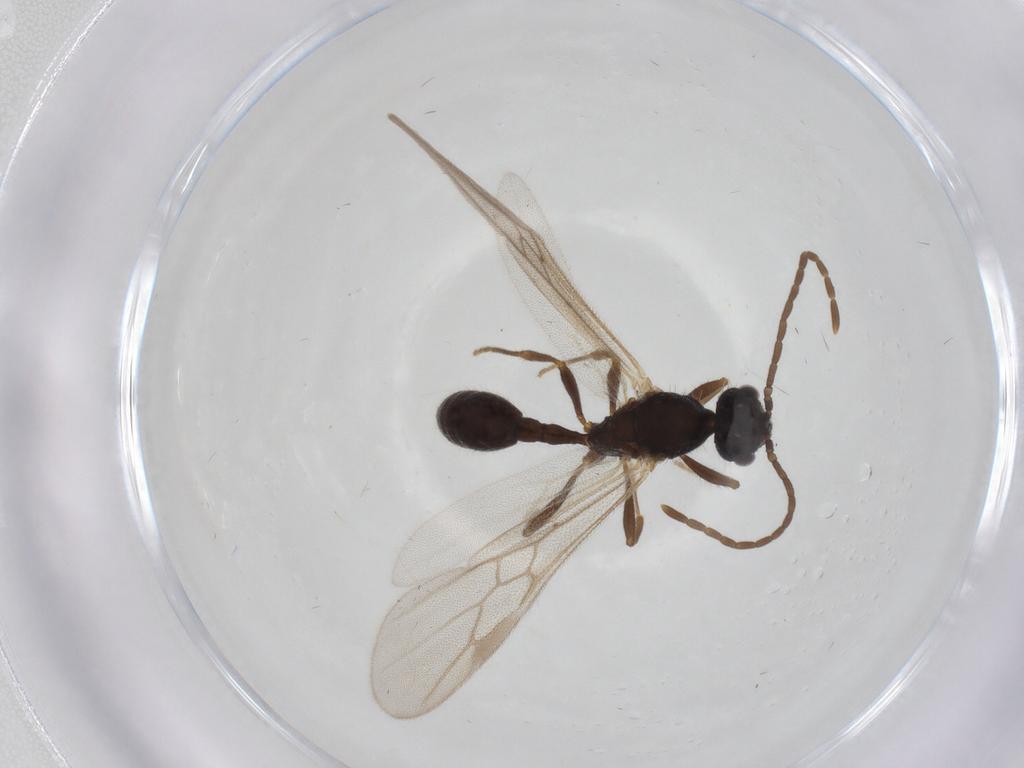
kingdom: Animalia
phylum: Arthropoda
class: Insecta
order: Hymenoptera
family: Formicidae
